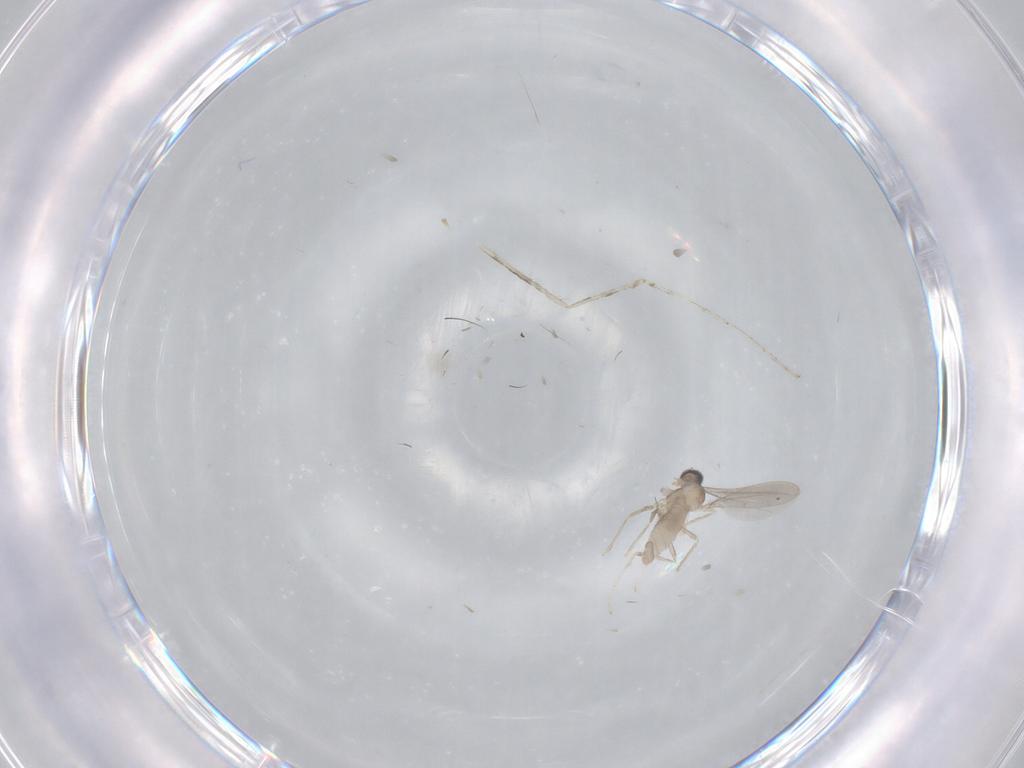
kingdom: Animalia
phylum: Arthropoda
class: Insecta
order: Diptera
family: Cecidomyiidae
